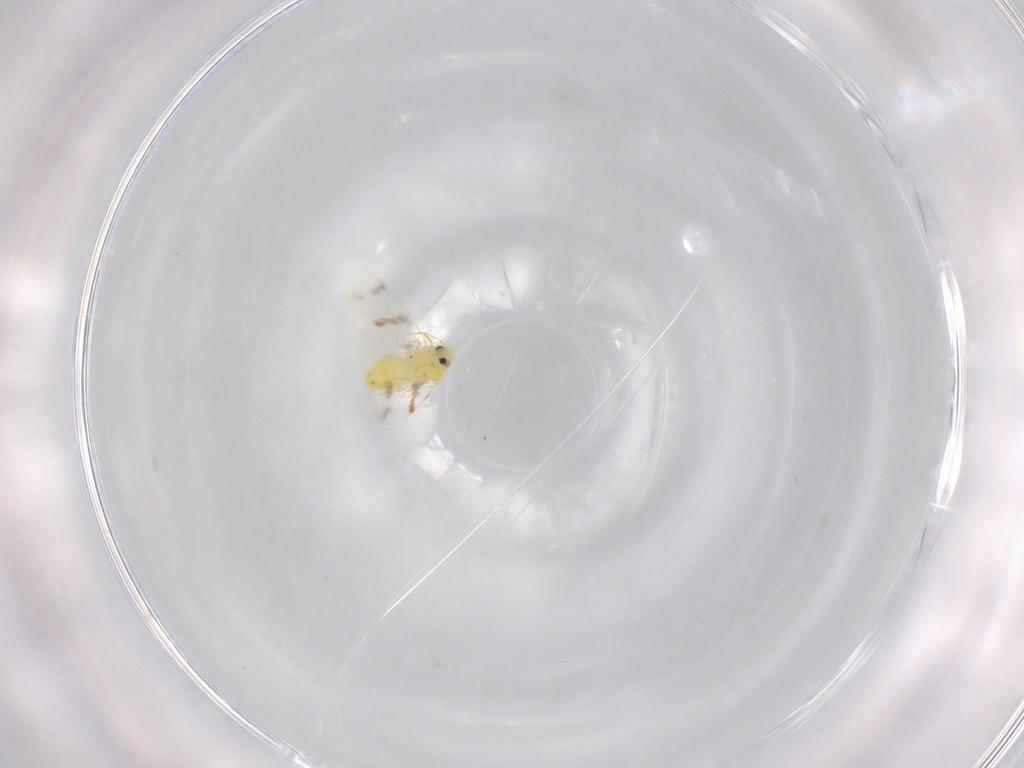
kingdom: Animalia
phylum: Arthropoda
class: Insecta
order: Hemiptera
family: Aleyrodidae
